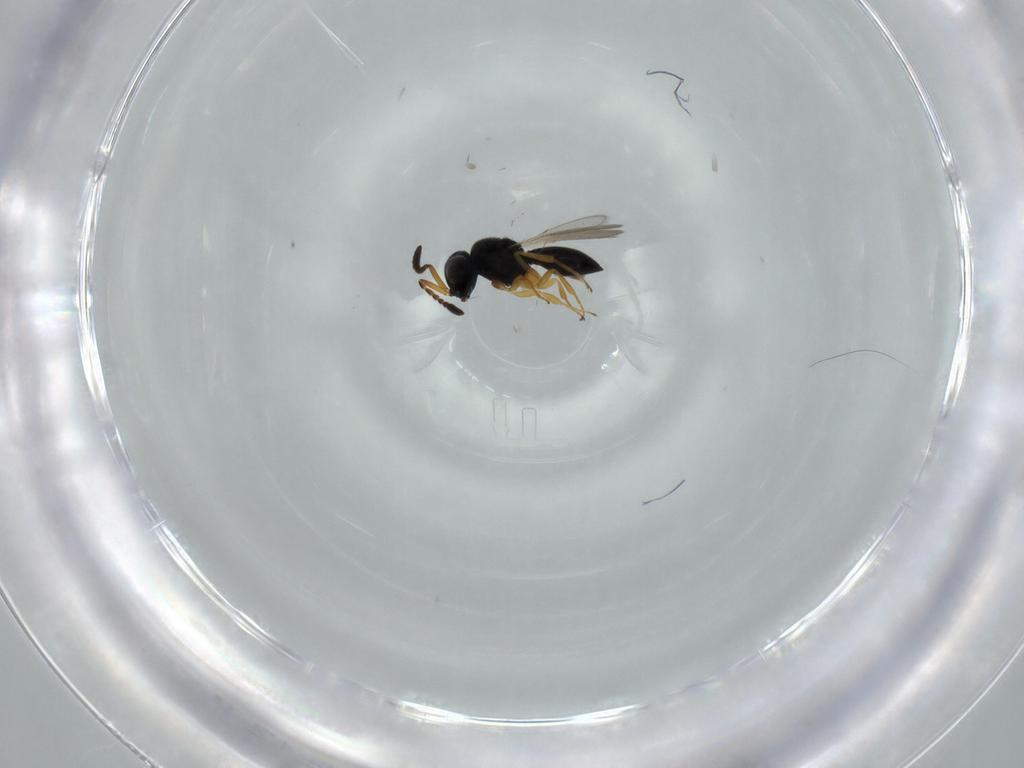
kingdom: Animalia
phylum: Arthropoda
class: Insecta
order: Hymenoptera
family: Scelionidae
